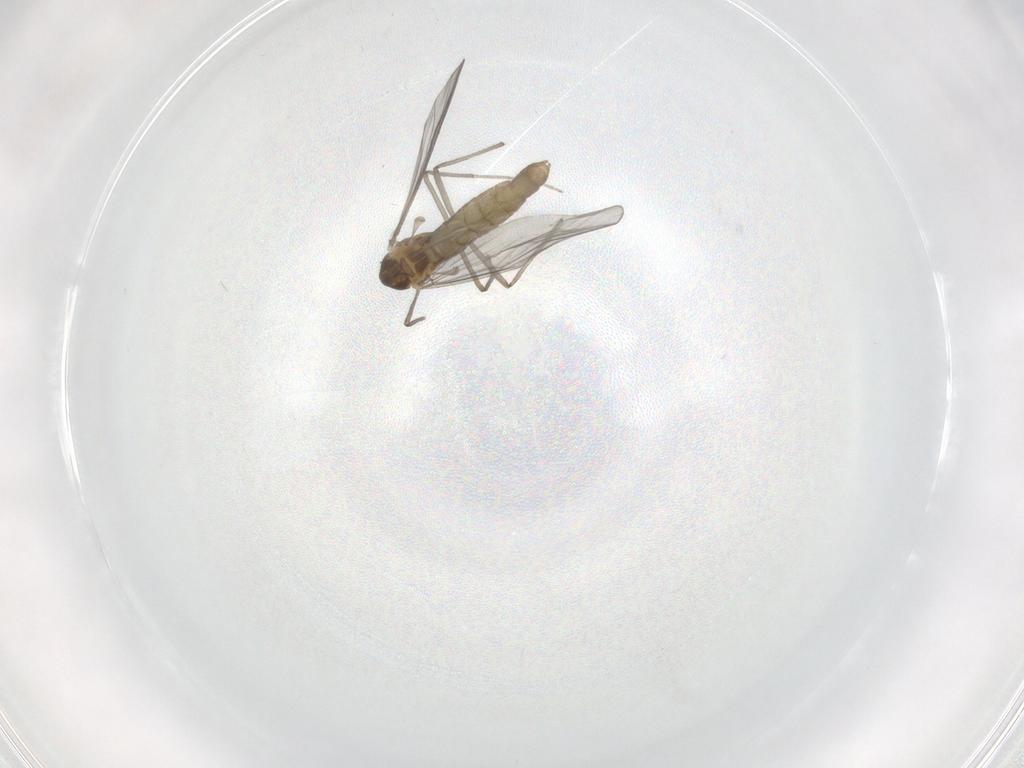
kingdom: Animalia
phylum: Arthropoda
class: Insecta
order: Diptera
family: Chironomidae
